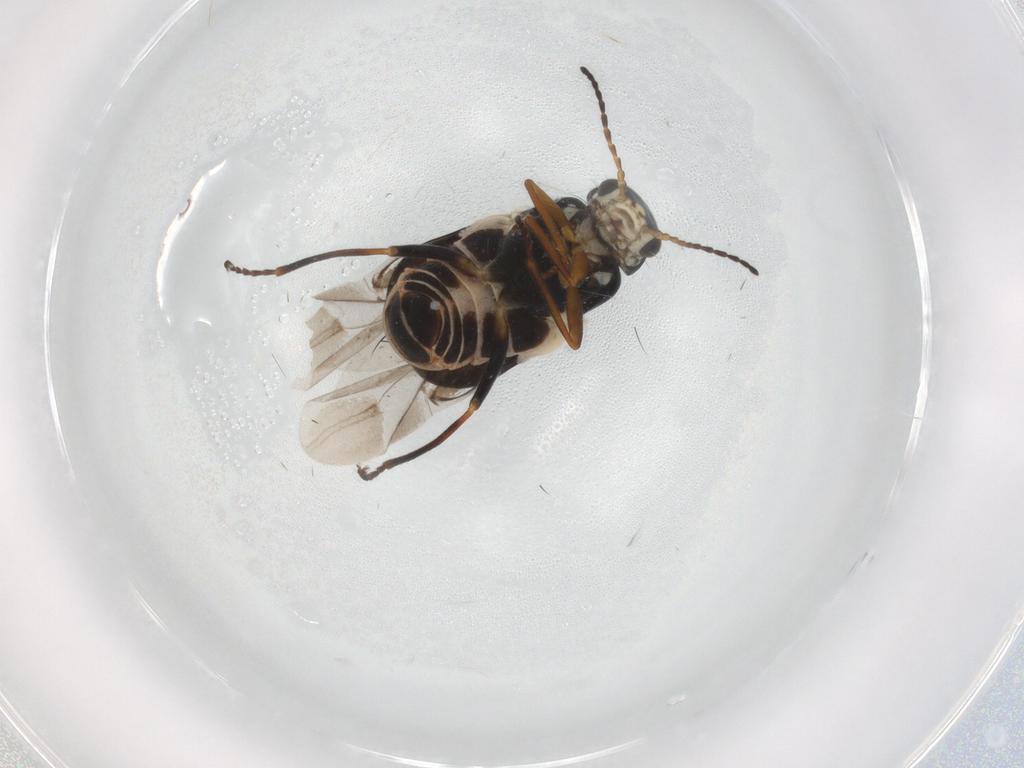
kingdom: Animalia
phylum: Arthropoda
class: Insecta
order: Coleoptera
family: Melyridae
